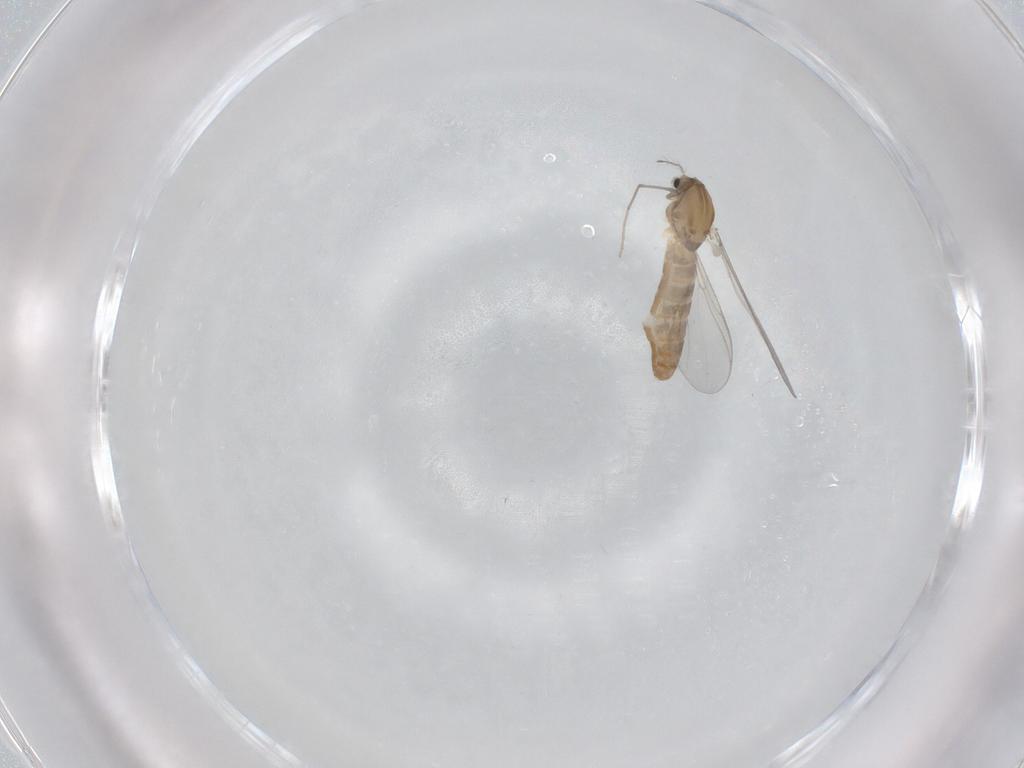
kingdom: Animalia
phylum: Arthropoda
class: Insecta
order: Diptera
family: Chironomidae
